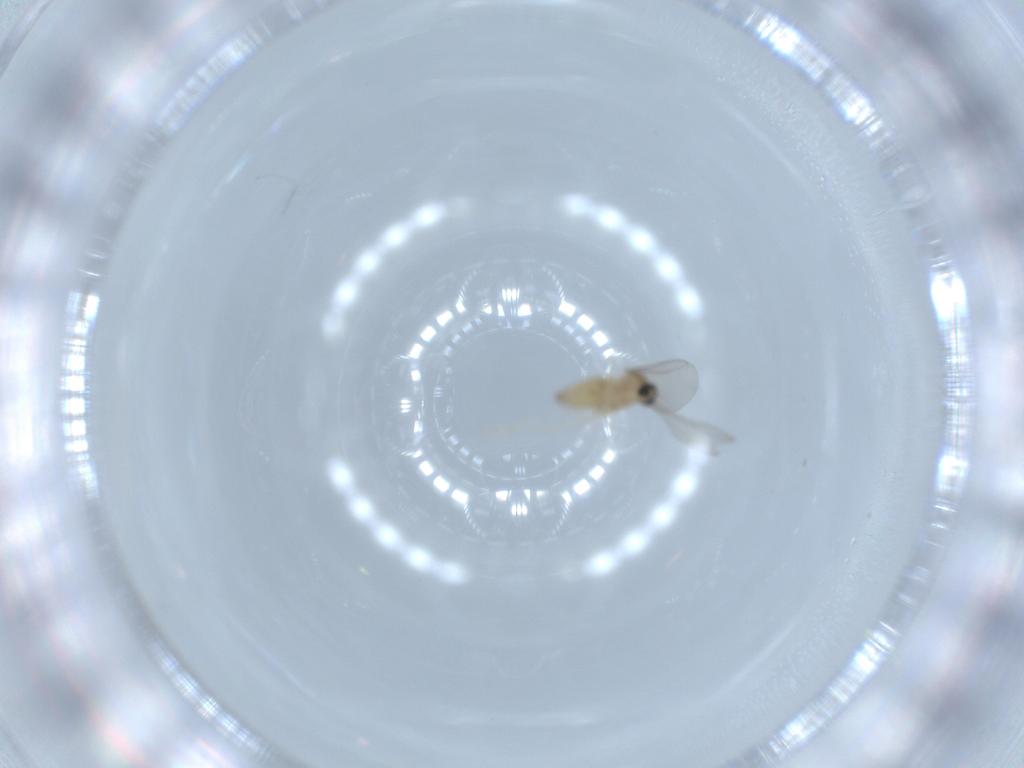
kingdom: Animalia
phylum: Arthropoda
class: Insecta
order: Diptera
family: Cecidomyiidae
